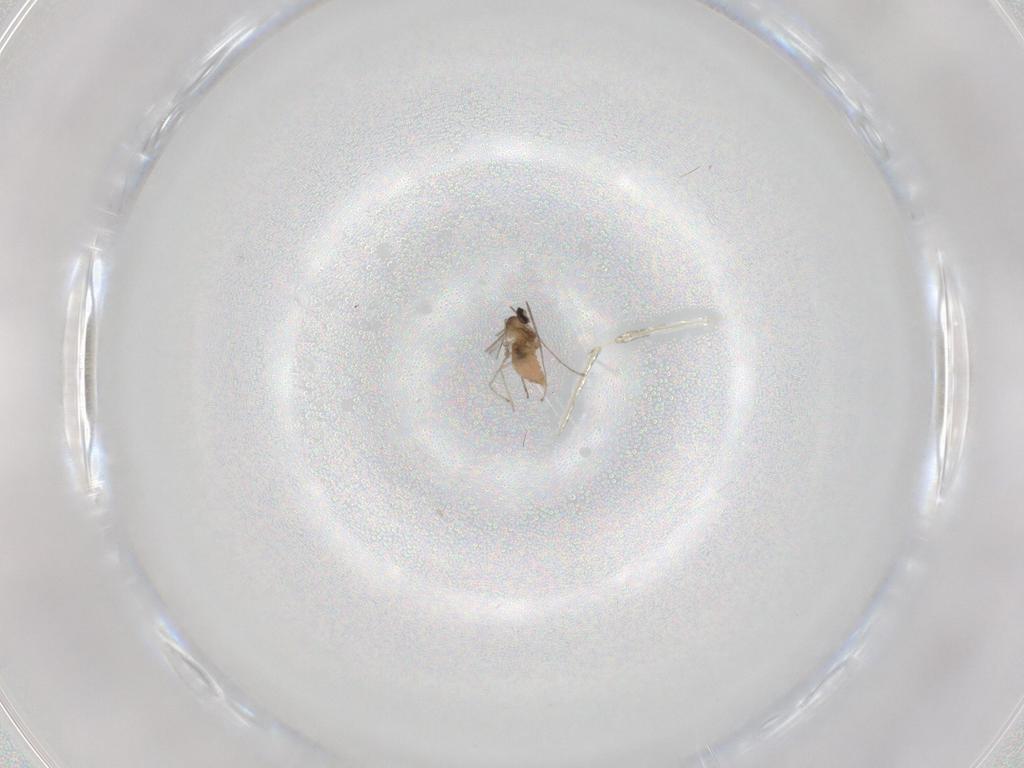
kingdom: Animalia
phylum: Arthropoda
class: Insecta
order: Diptera
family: Cecidomyiidae
